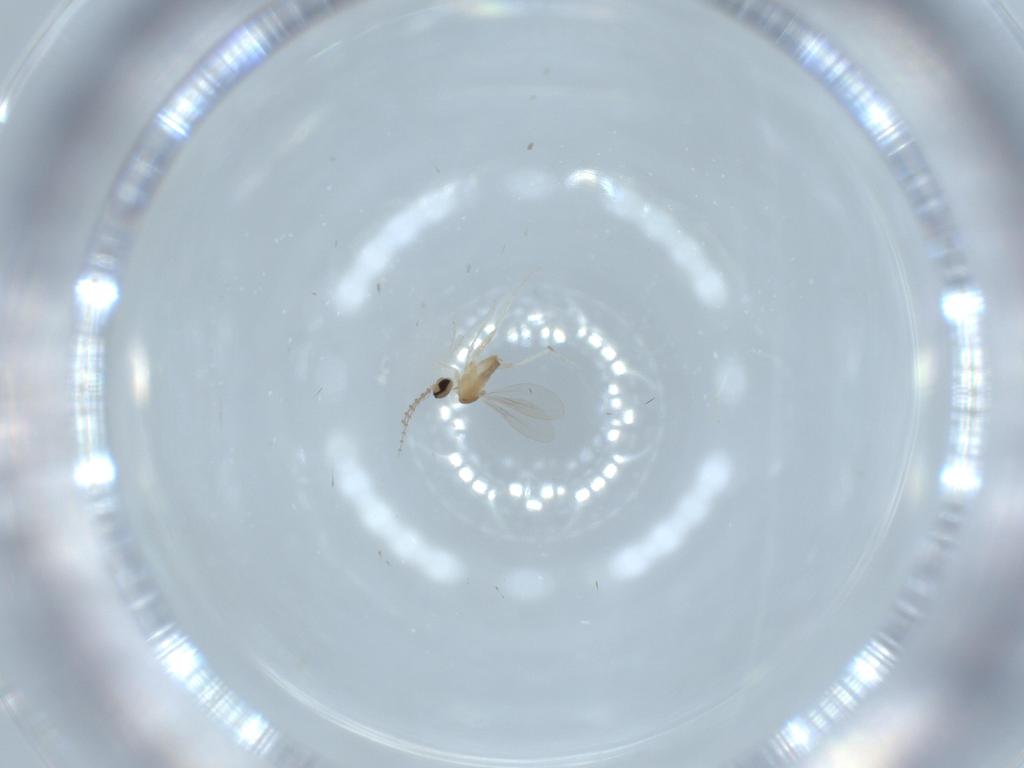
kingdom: Animalia
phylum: Arthropoda
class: Insecta
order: Diptera
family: Cecidomyiidae
